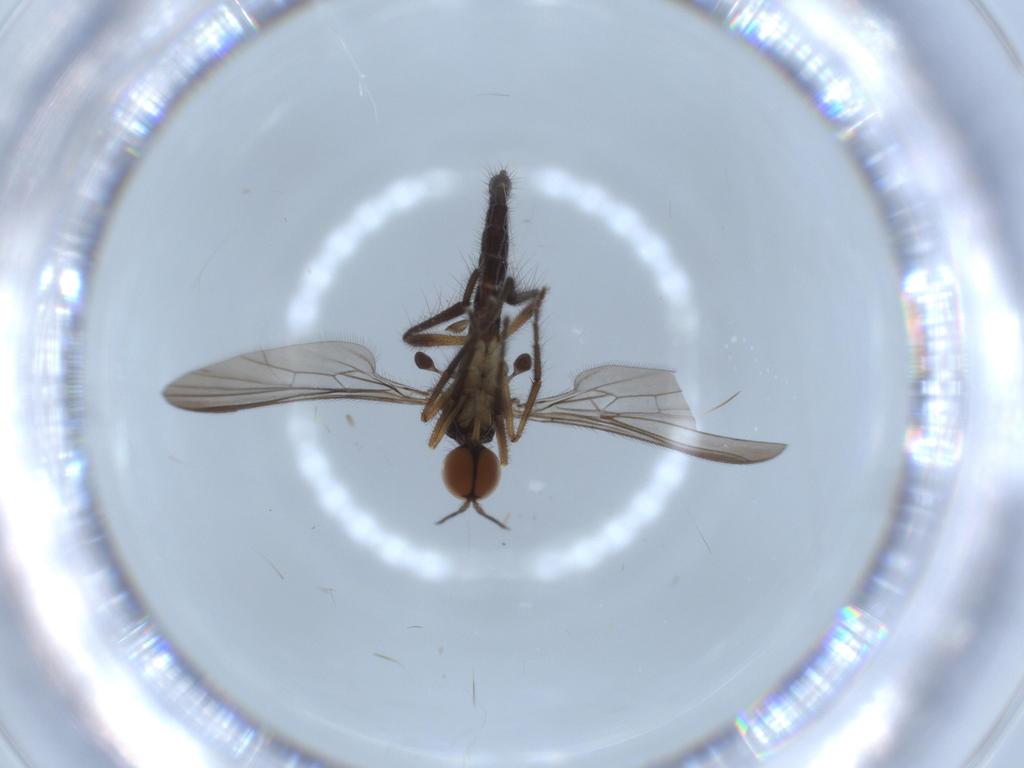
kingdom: Animalia
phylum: Arthropoda
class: Insecta
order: Diptera
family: Empididae
